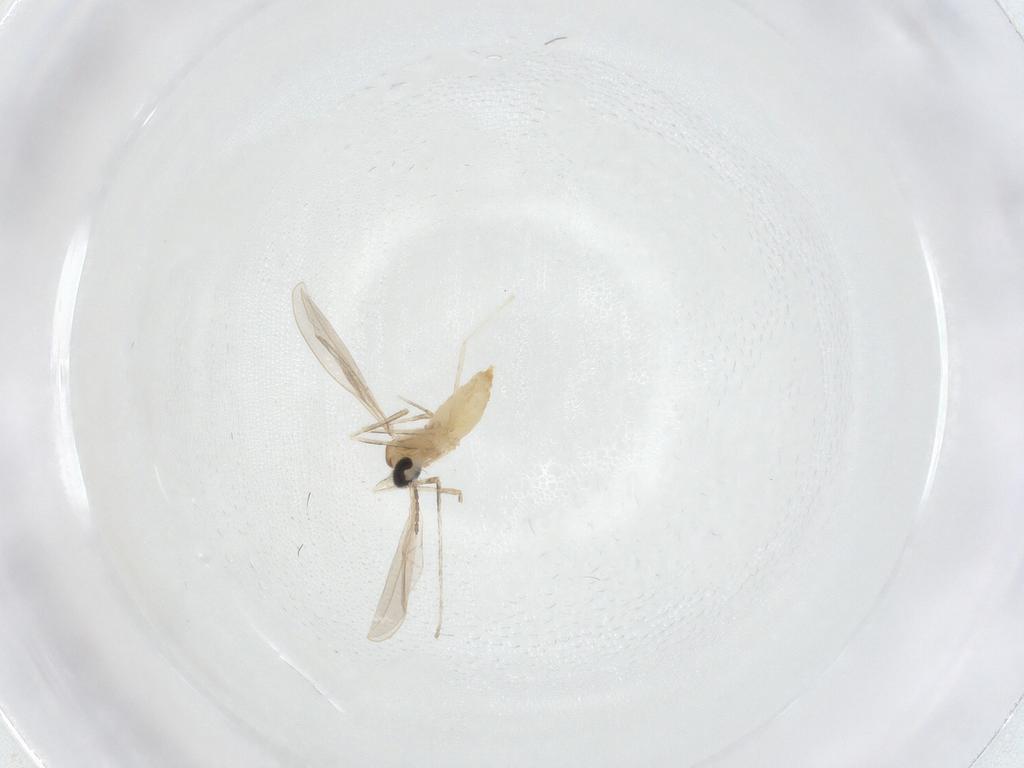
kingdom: Animalia
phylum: Arthropoda
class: Insecta
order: Diptera
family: Cecidomyiidae
